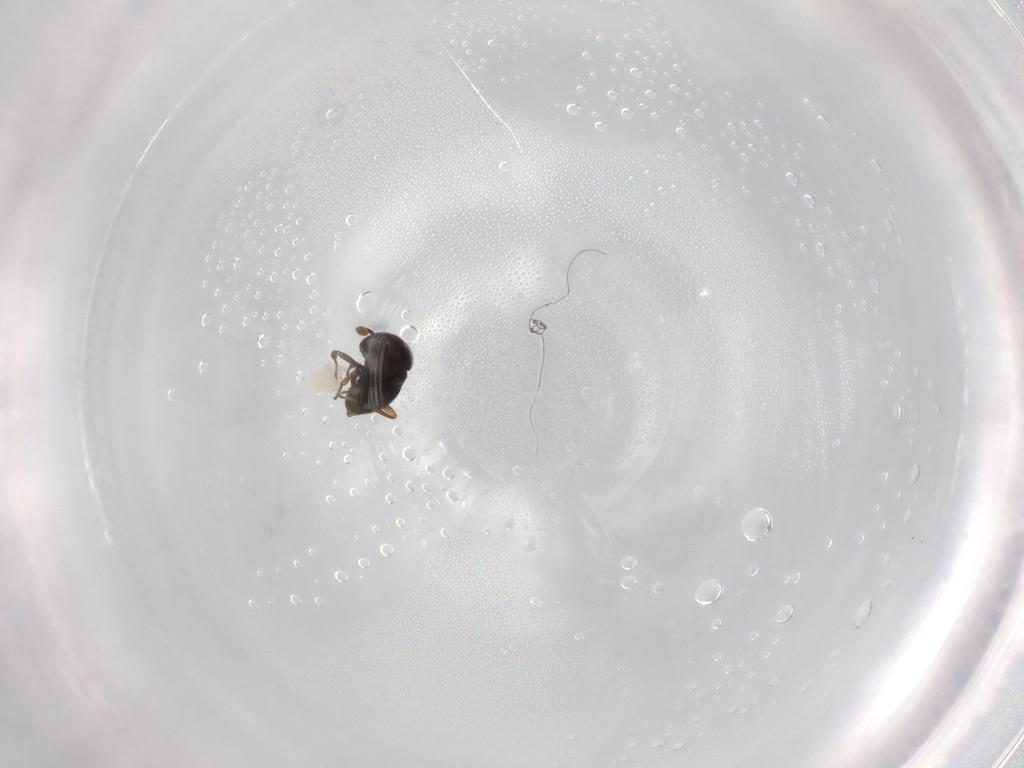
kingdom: Animalia
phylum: Arthropoda
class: Insecta
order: Hymenoptera
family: Scelionidae
